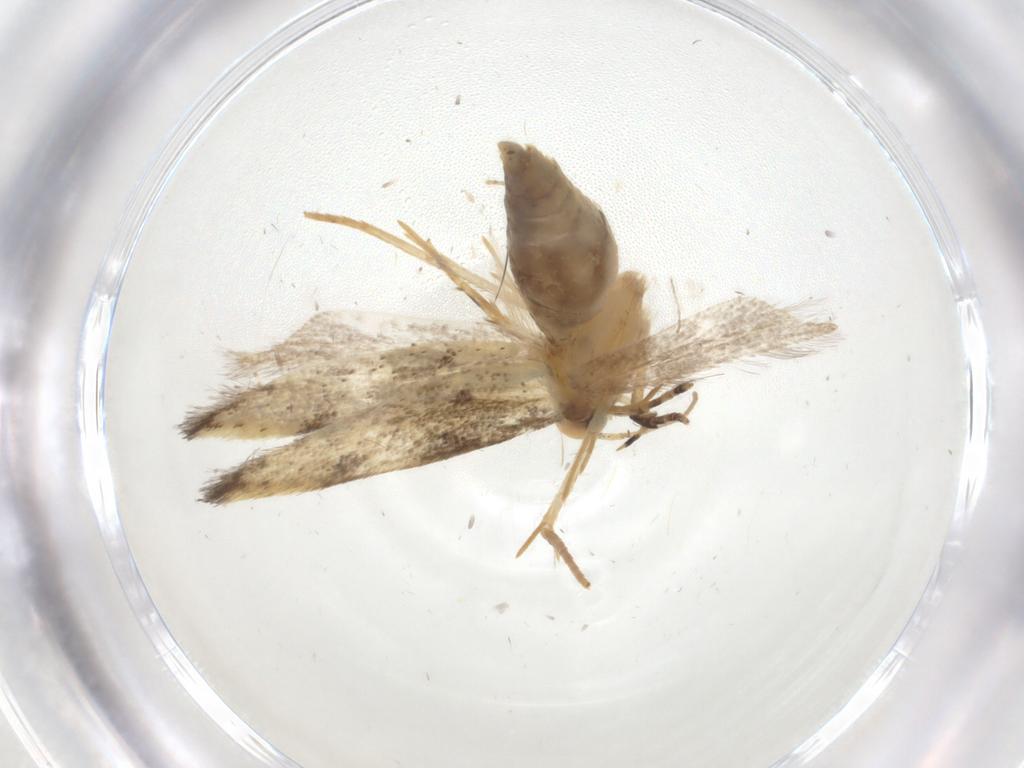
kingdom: Animalia
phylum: Arthropoda
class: Insecta
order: Lepidoptera
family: Autostichidae
